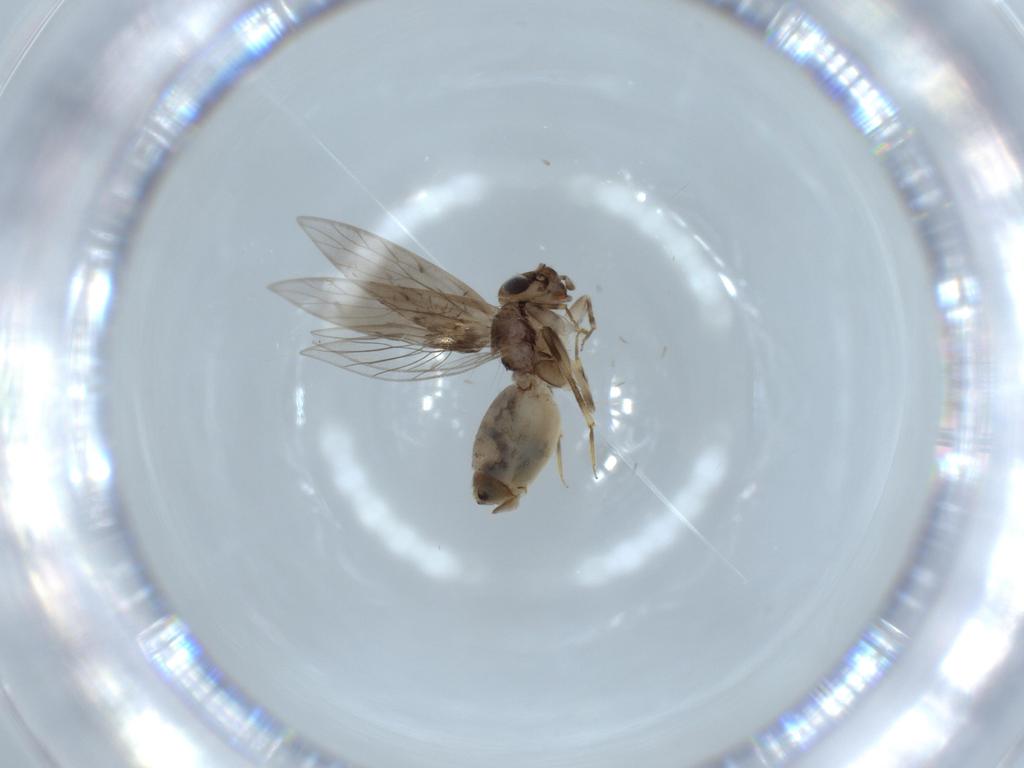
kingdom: Animalia
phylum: Arthropoda
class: Insecta
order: Psocodea
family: Lepidopsocidae
